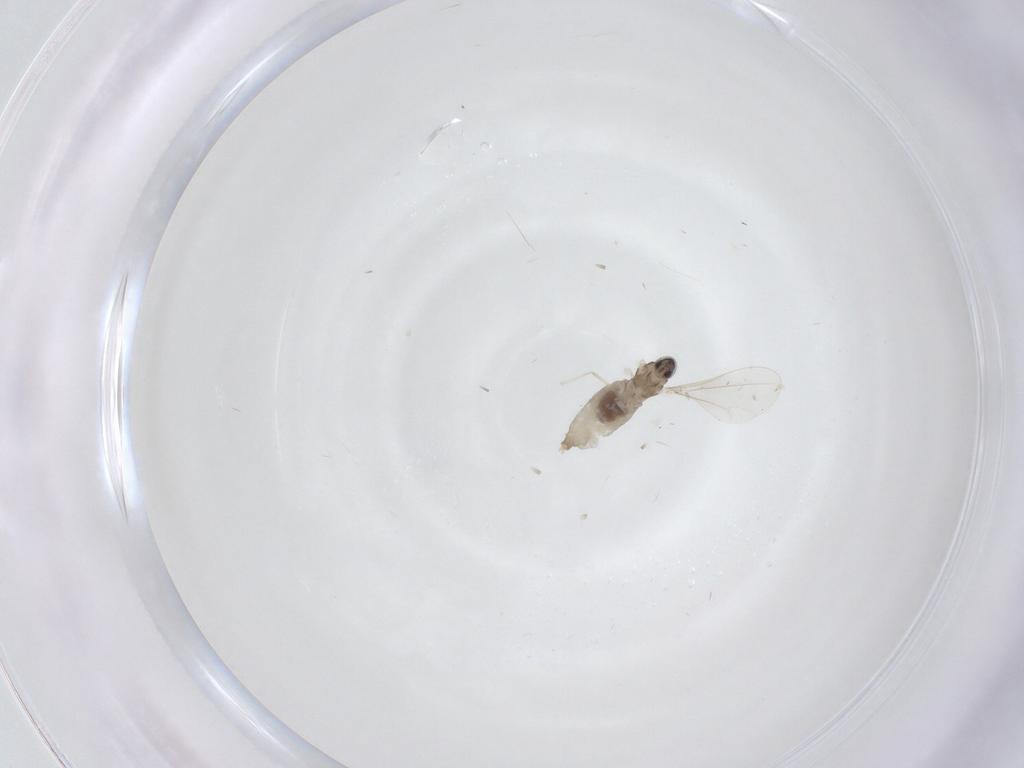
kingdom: Animalia
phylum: Arthropoda
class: Insecta
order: Diptera
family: Cecidomyiidae
